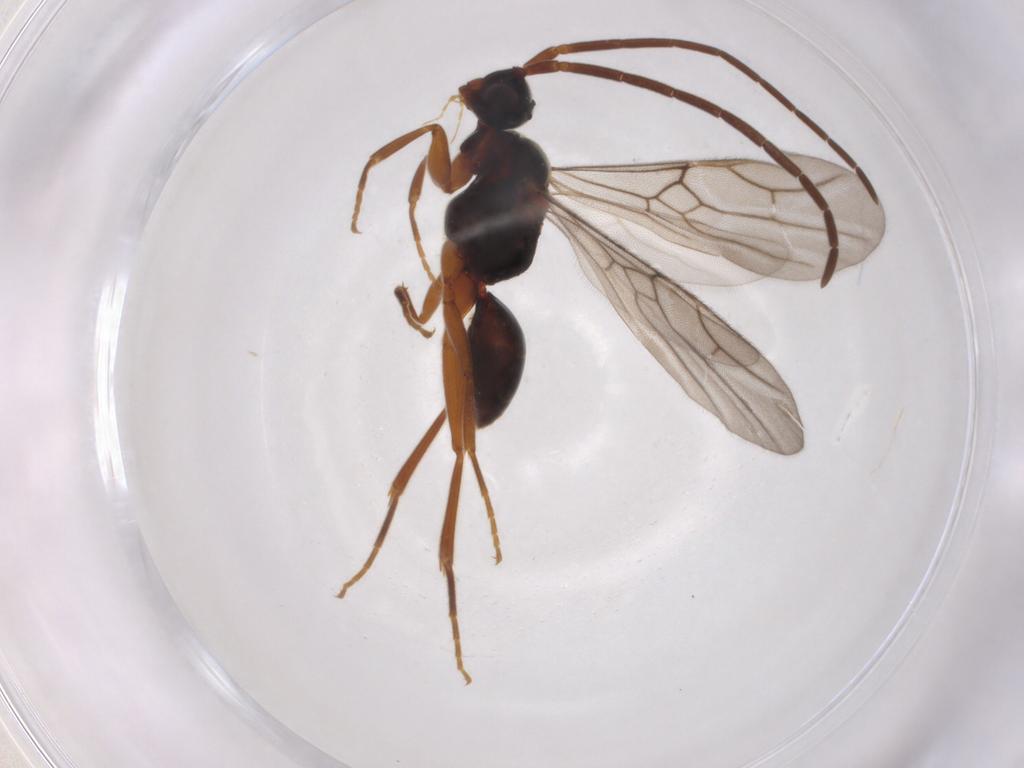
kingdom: Animalia
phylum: Arthropoda
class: Insecta
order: Hymenoptera
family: Embolemidae
